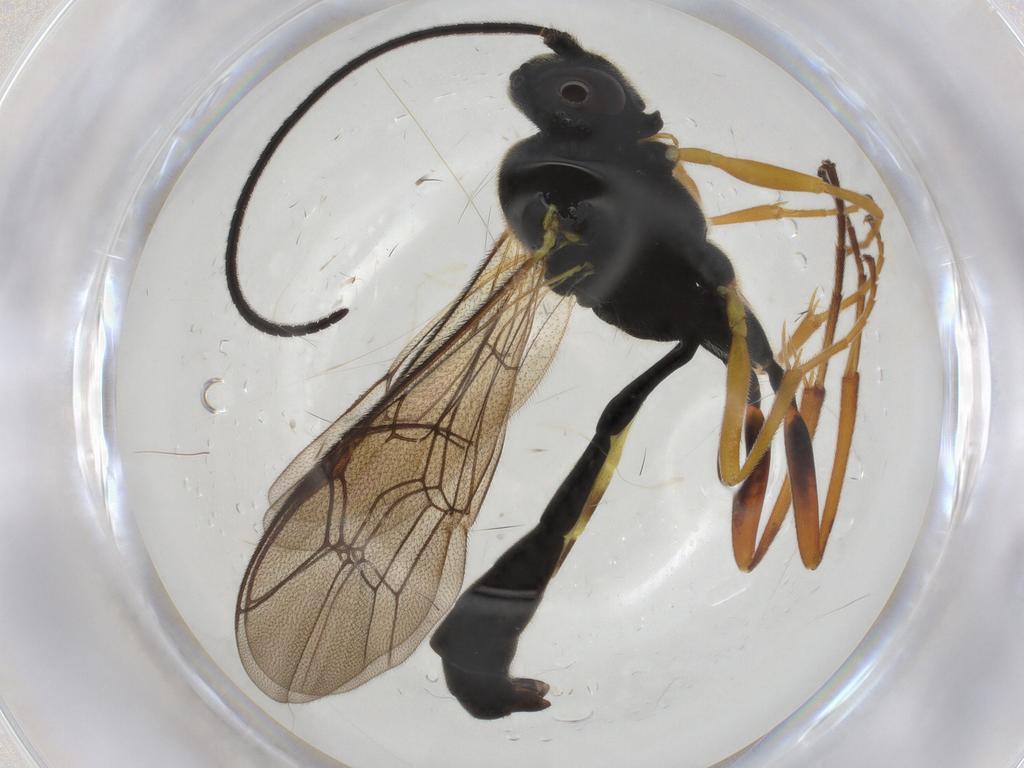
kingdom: Animalia
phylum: Arthropoda
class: Insecta
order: Hymenoptera
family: Ichneumonidae
